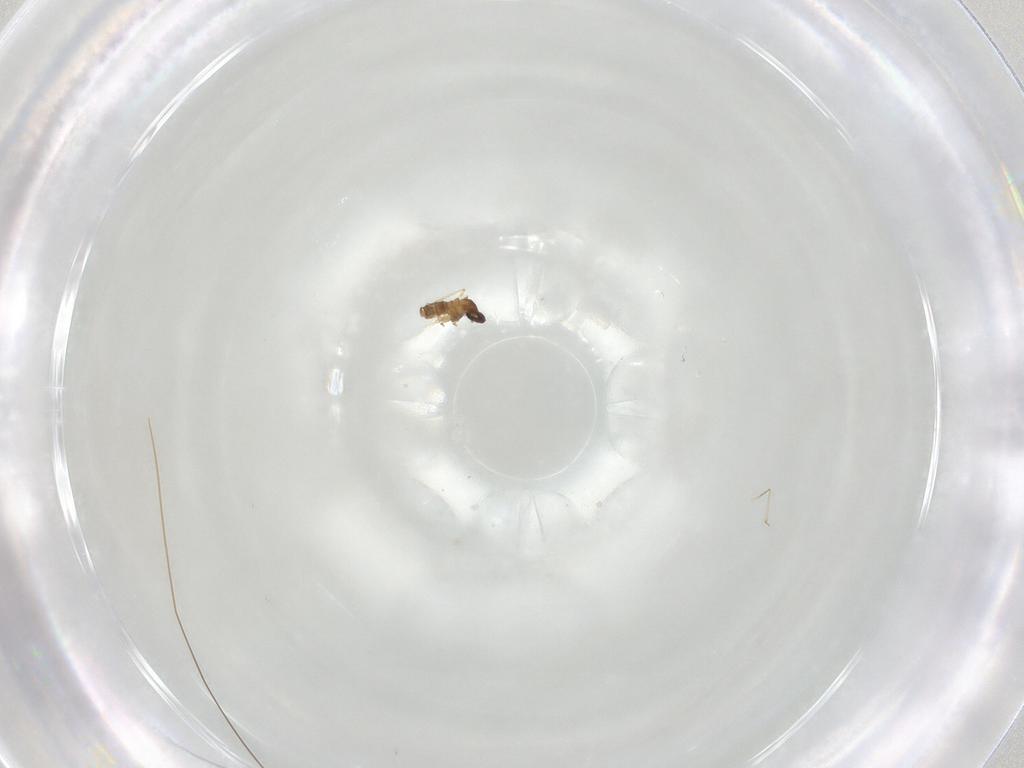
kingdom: Animalia
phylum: Arthropoda
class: Insecta
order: Diptera
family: Cecidomyiidae
